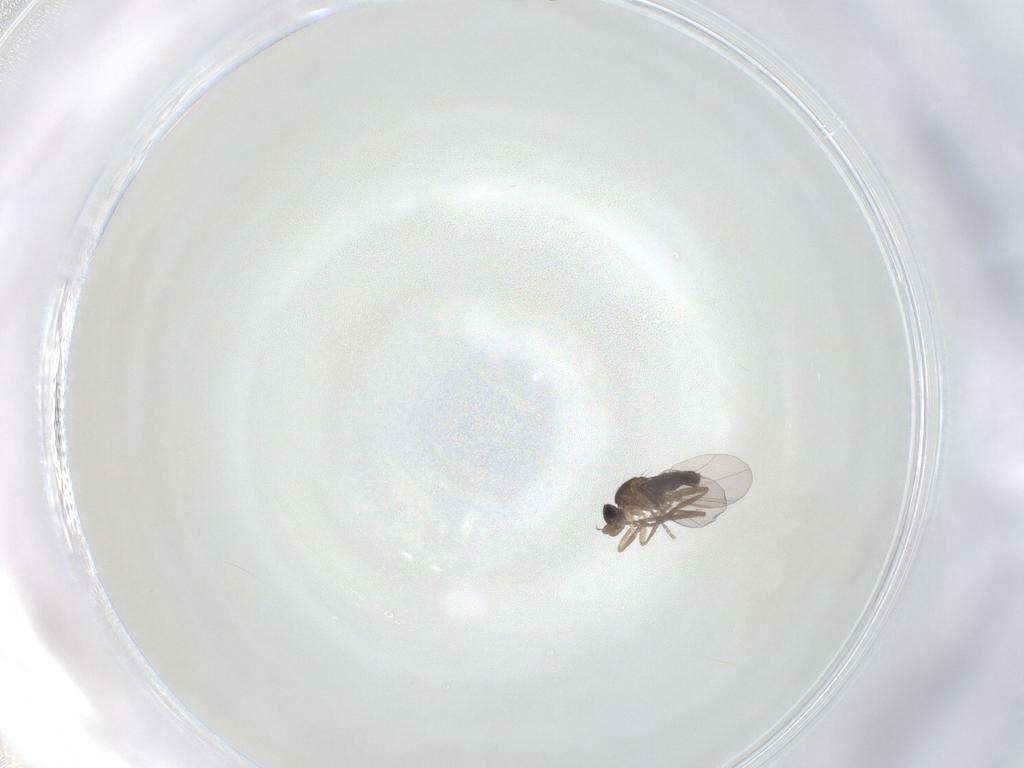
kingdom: Animalia
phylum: Arthropoda
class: Insecta
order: Diptera
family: Phoridae
